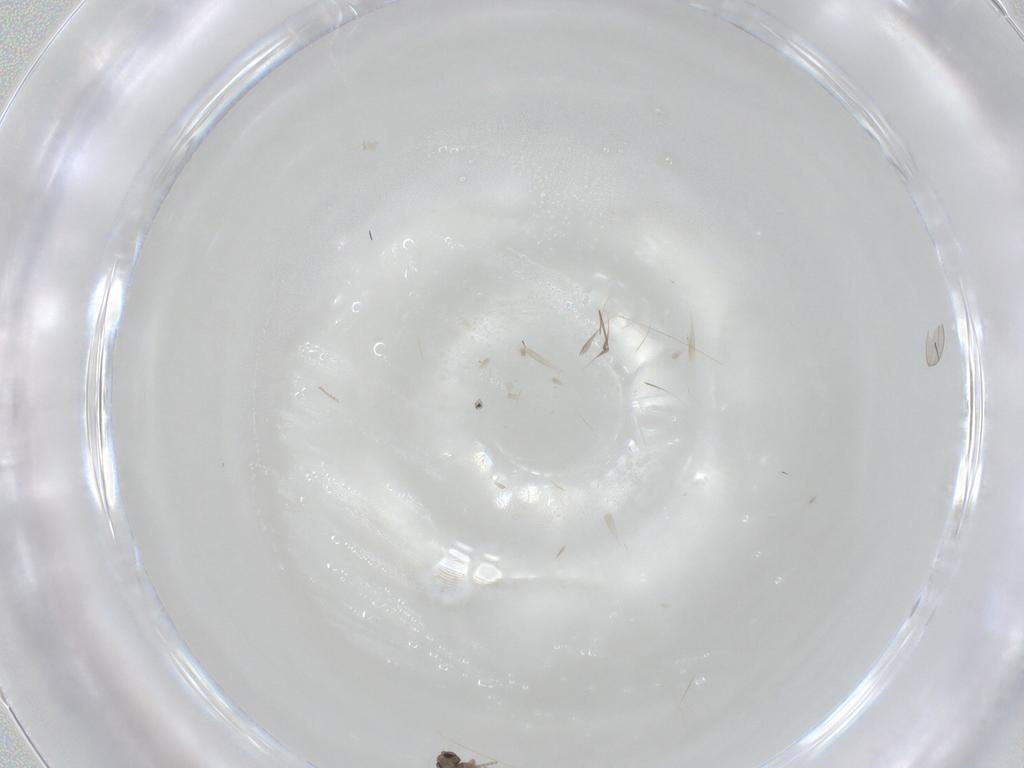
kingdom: Animalia
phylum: Arthropoda
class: Insecta
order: Diptera
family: Cecidomyiidae
